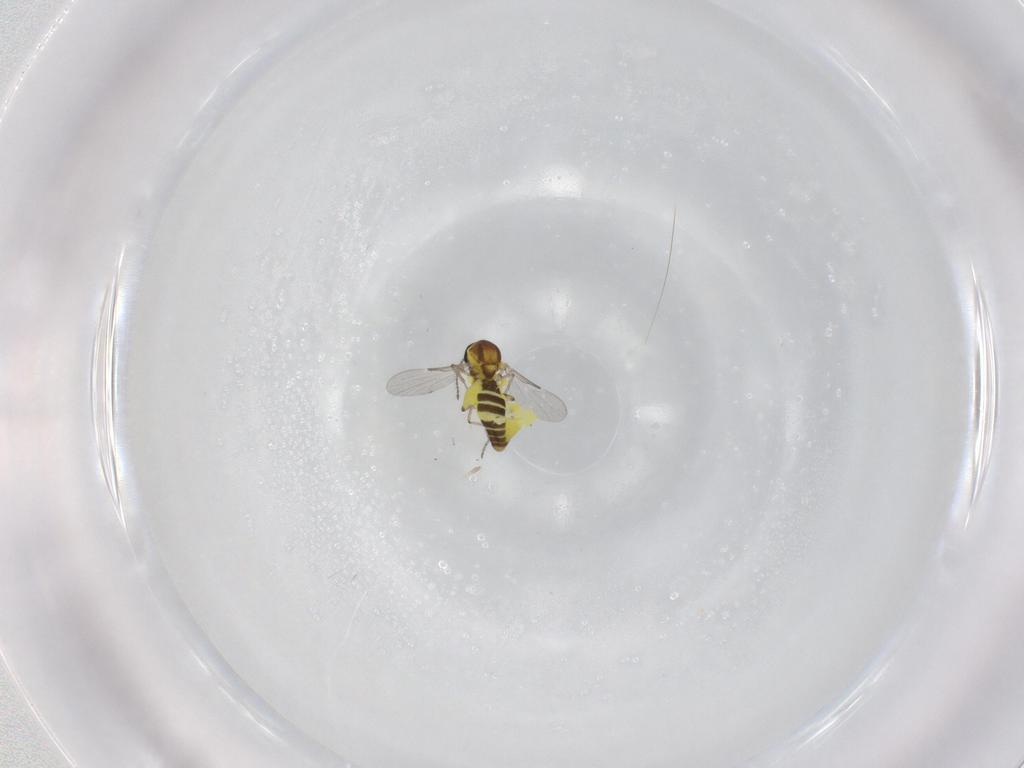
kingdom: Animalia
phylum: Arthropoda
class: Insecta
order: Diptera
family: Ceratopogonidae
